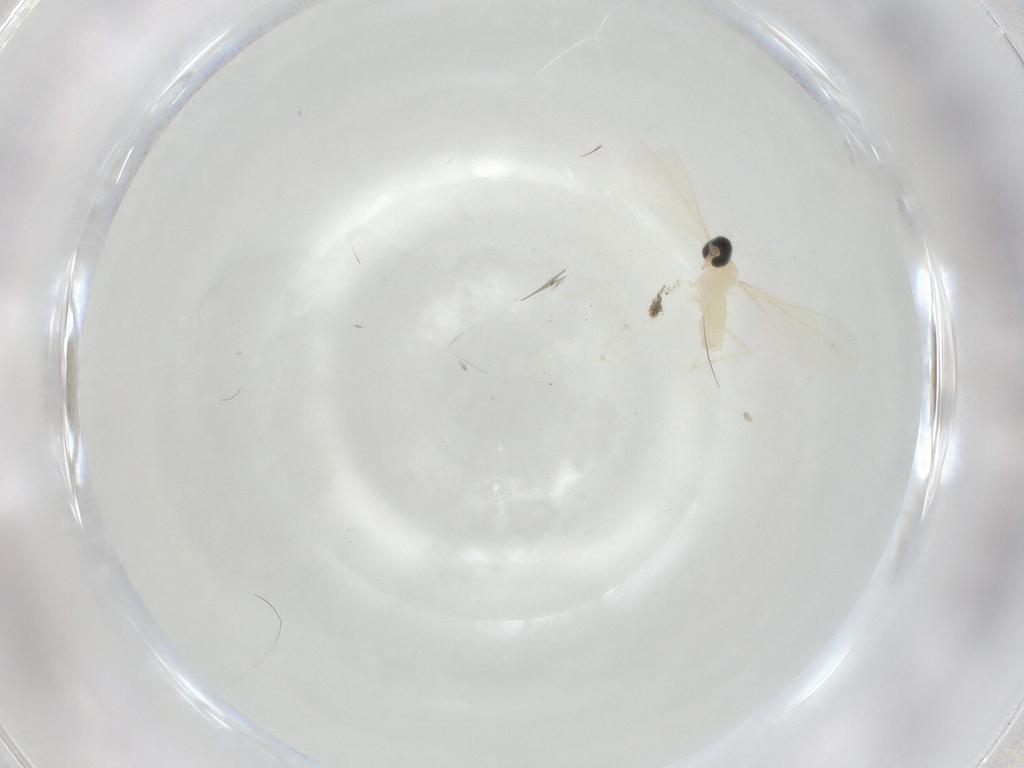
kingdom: Animalia
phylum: Arthropoda
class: Insecta
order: Diptera
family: Cecidomyiidae
